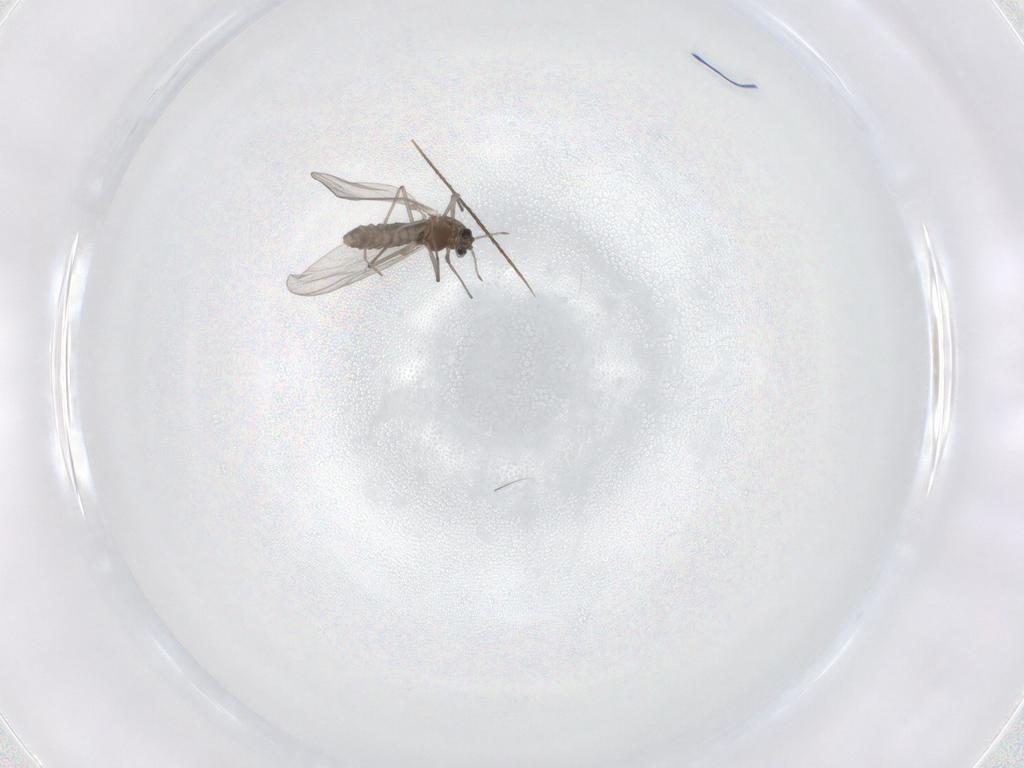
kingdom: Animalia
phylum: Arthropoda
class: Insecta
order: Diptera
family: Chironomidae
